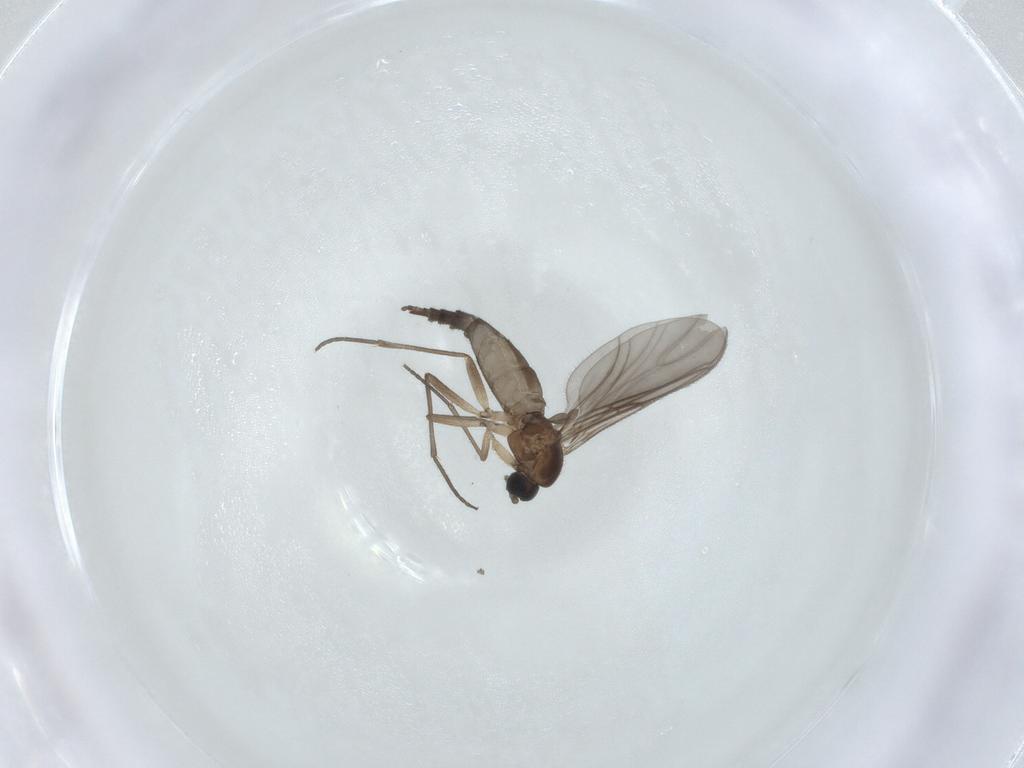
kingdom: Animalia
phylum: Arthropoda
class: Insecta
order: Diptera
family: Sciaridae
